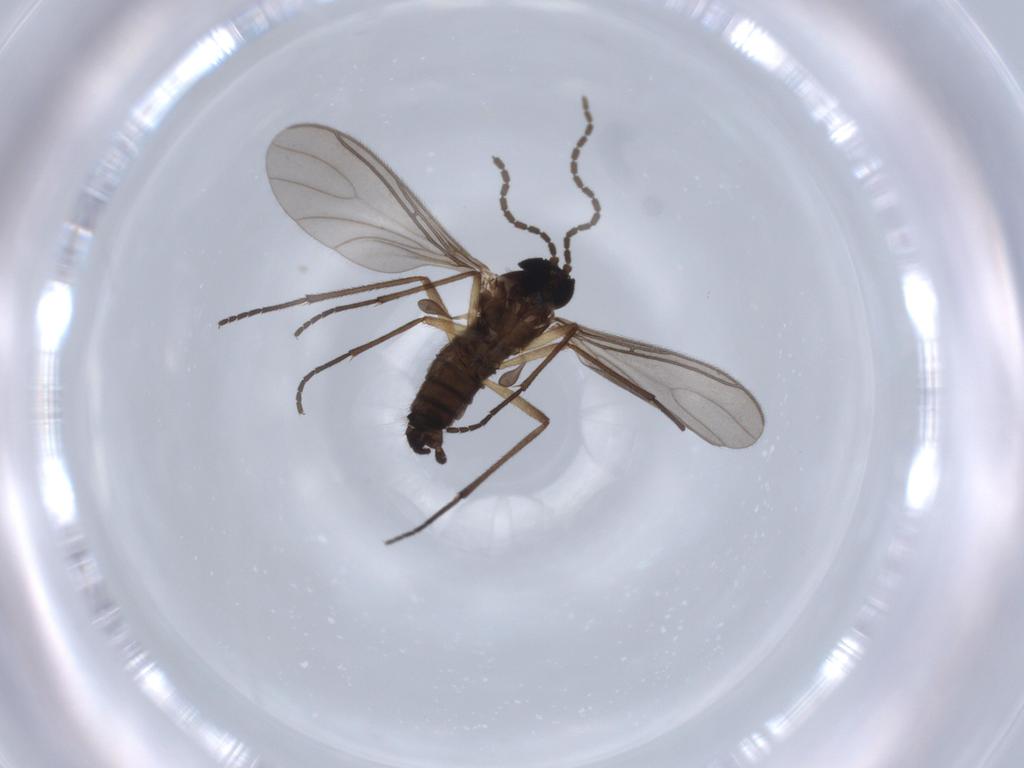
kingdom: Animalia
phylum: Arthropoda
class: Insecta
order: Diptera
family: Sciaridae
